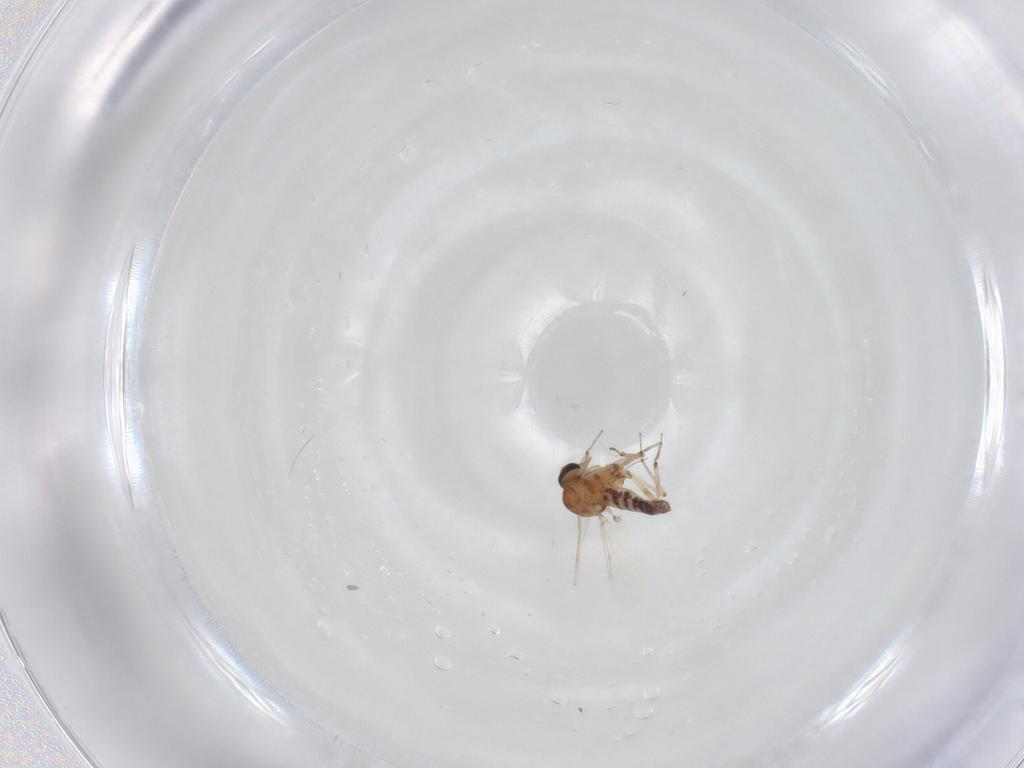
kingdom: Animalia
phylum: Arthropoda
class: Insecta
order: Diptera
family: Ceratopogonidae
